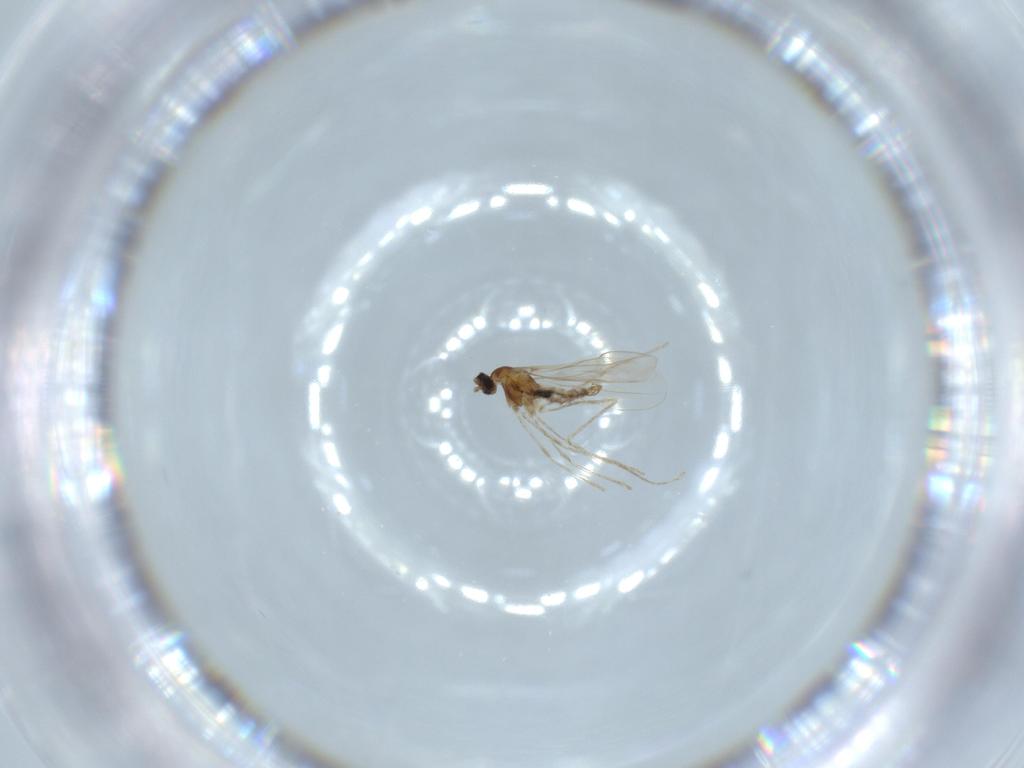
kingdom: Animalia
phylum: Arthropoda
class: Insecta
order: Diptera
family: Cecidomyiidae
